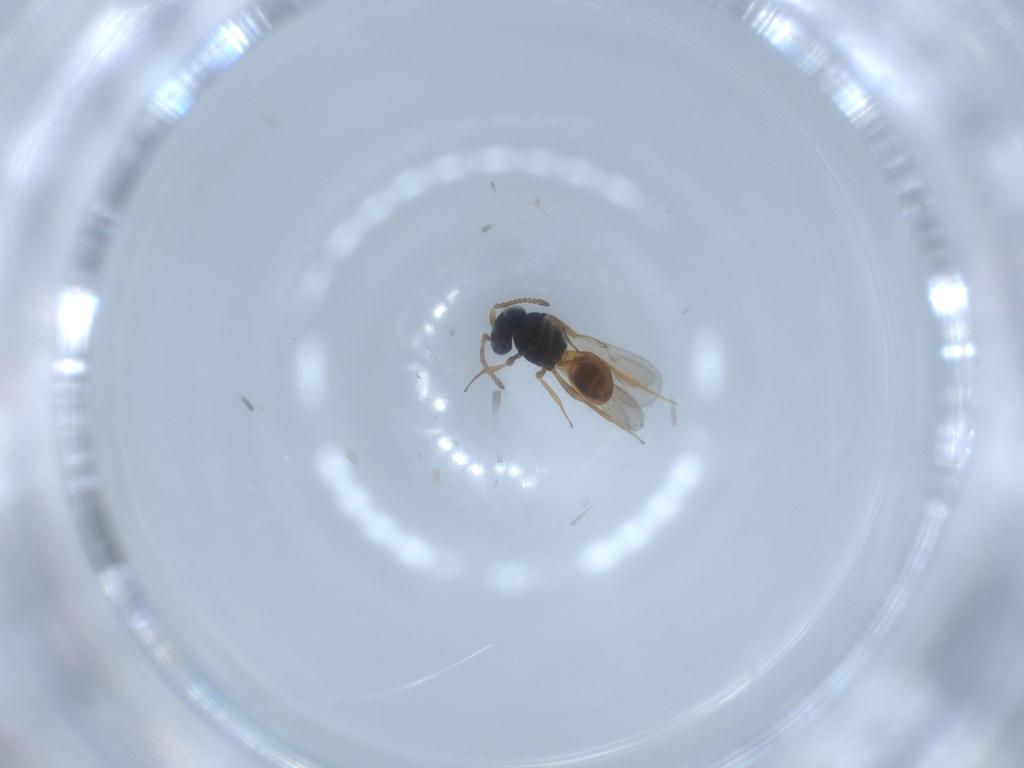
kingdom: Animalia
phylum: Arthropoda
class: Insecta
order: Hymenoptera
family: Scelionidae
